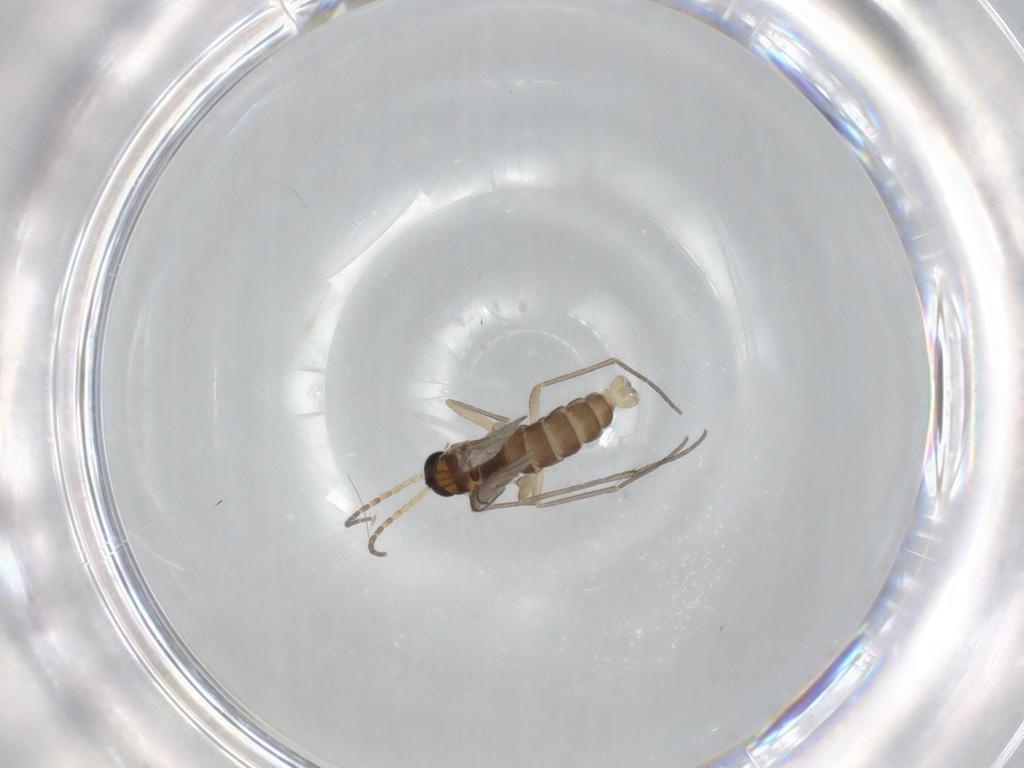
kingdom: Animalia
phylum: Arthropoda
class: Insecta
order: Diptera
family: Sciaridae
